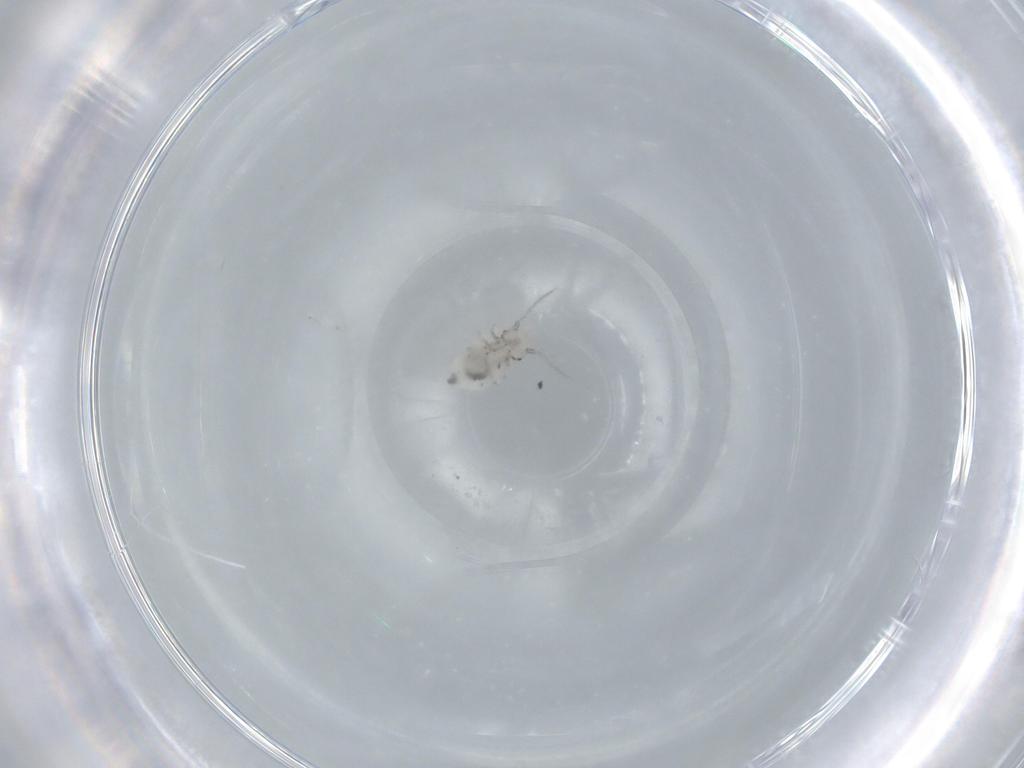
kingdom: Animalia
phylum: Arthropoda
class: Insecta
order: Psocodea
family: Pseudocaeciliidae
